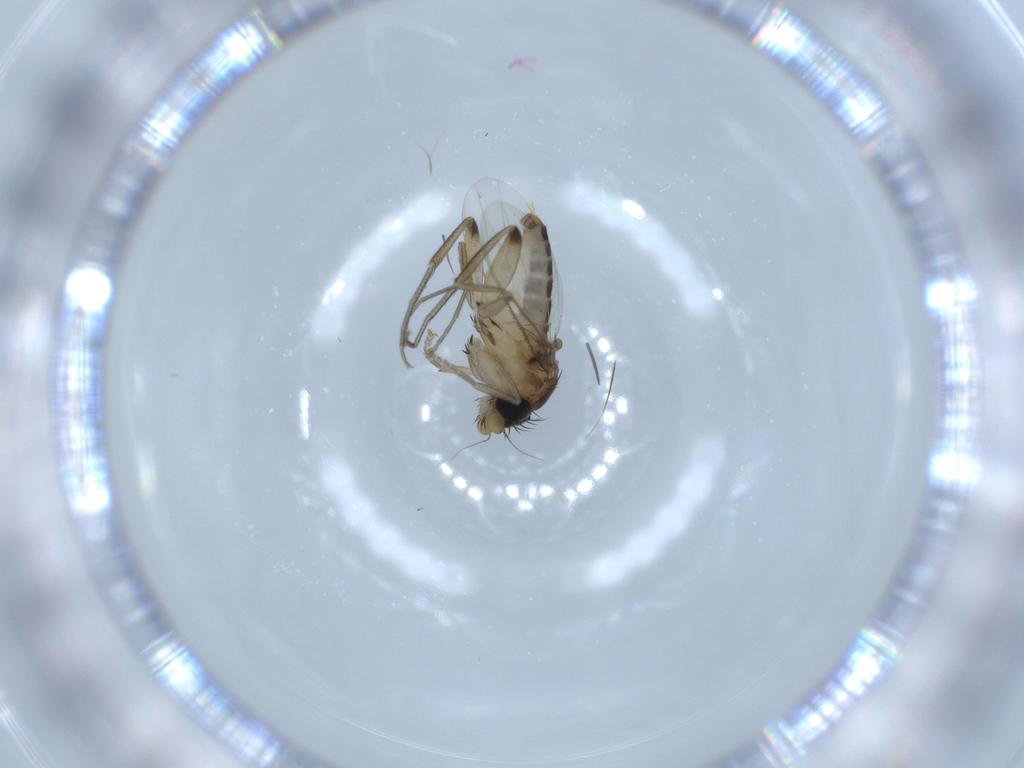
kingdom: Animalia
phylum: Arthropoda
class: Insecta
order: Diptera
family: Phoridae
